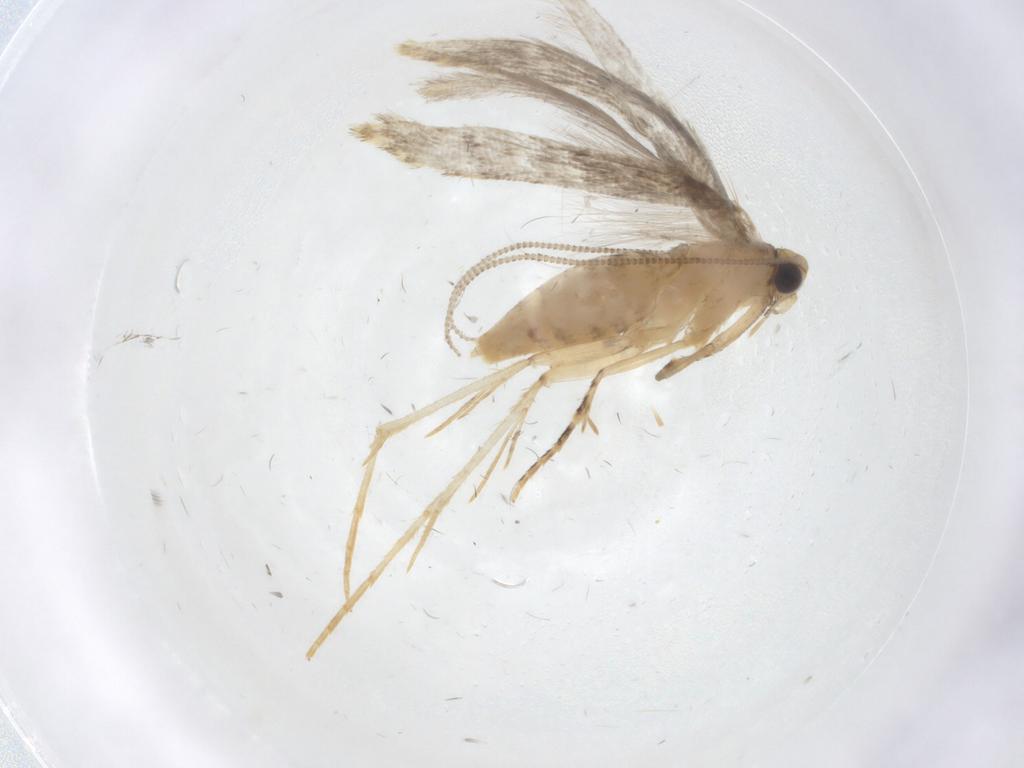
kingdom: Animalia
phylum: Arthropoda
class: Insecta
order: Lepidoptera
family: Tineidae
